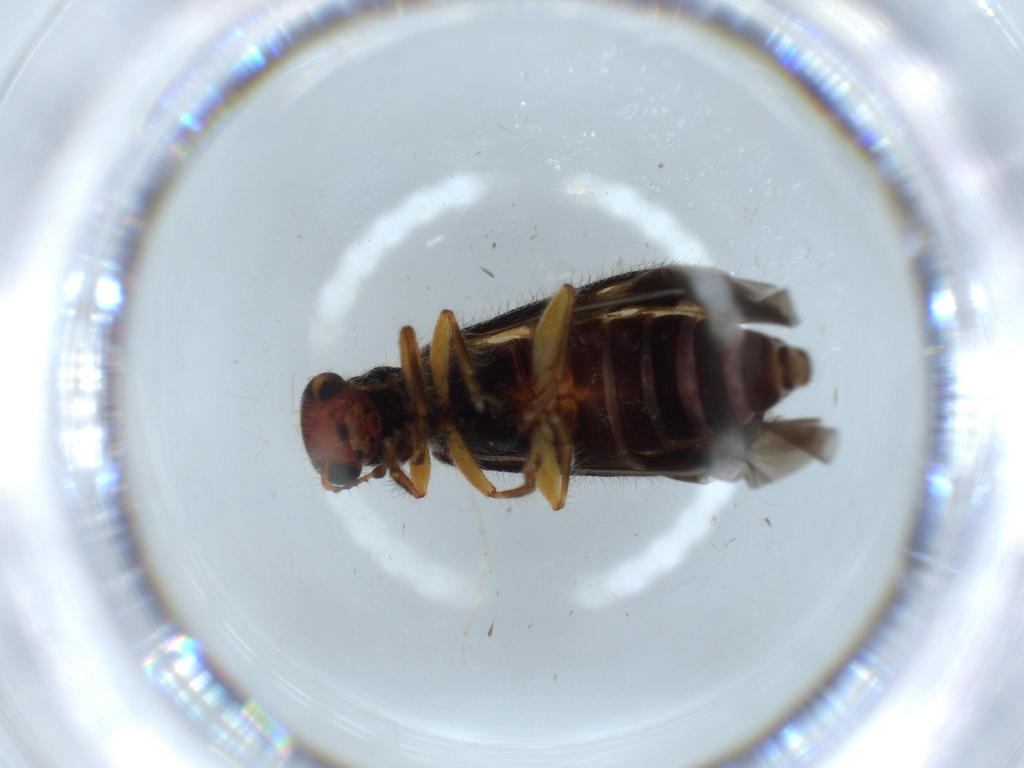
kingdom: Animalia
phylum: Arthropoda
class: Insecta
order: Coleoptera
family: Cleridae
